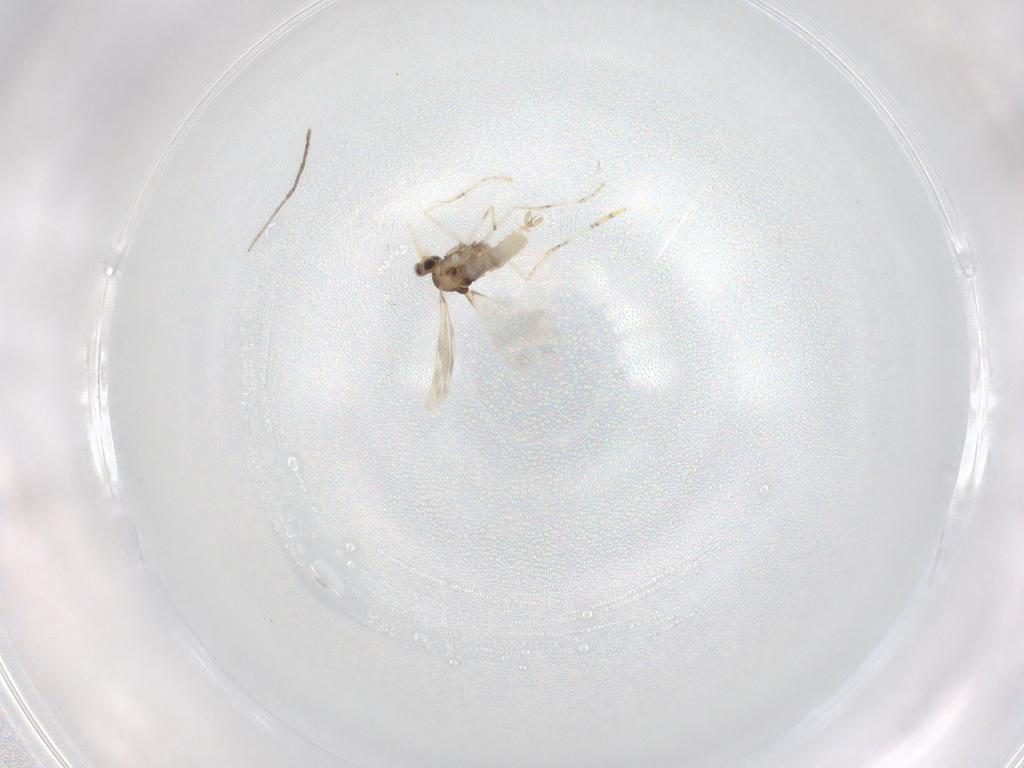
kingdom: Animalia
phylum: Arthropoda
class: Insecta
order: Diptera
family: Cecidomyiidae
